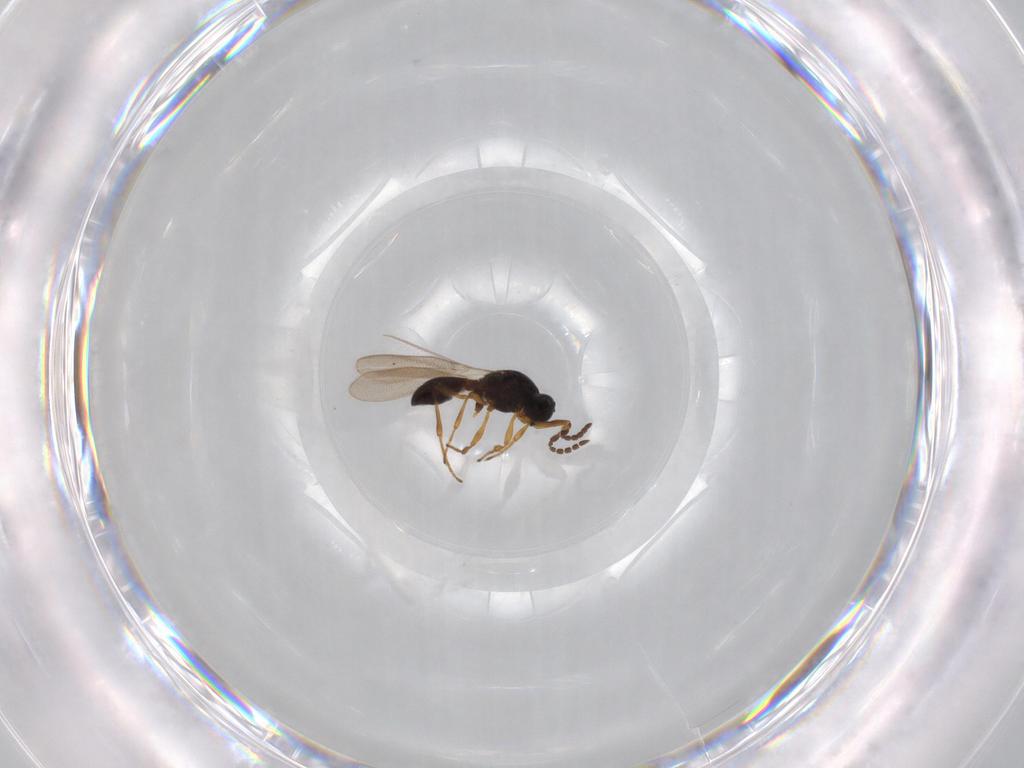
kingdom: Animalia
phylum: Arthropoda
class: Insecta
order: Hymenoptera
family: Platygastridae
